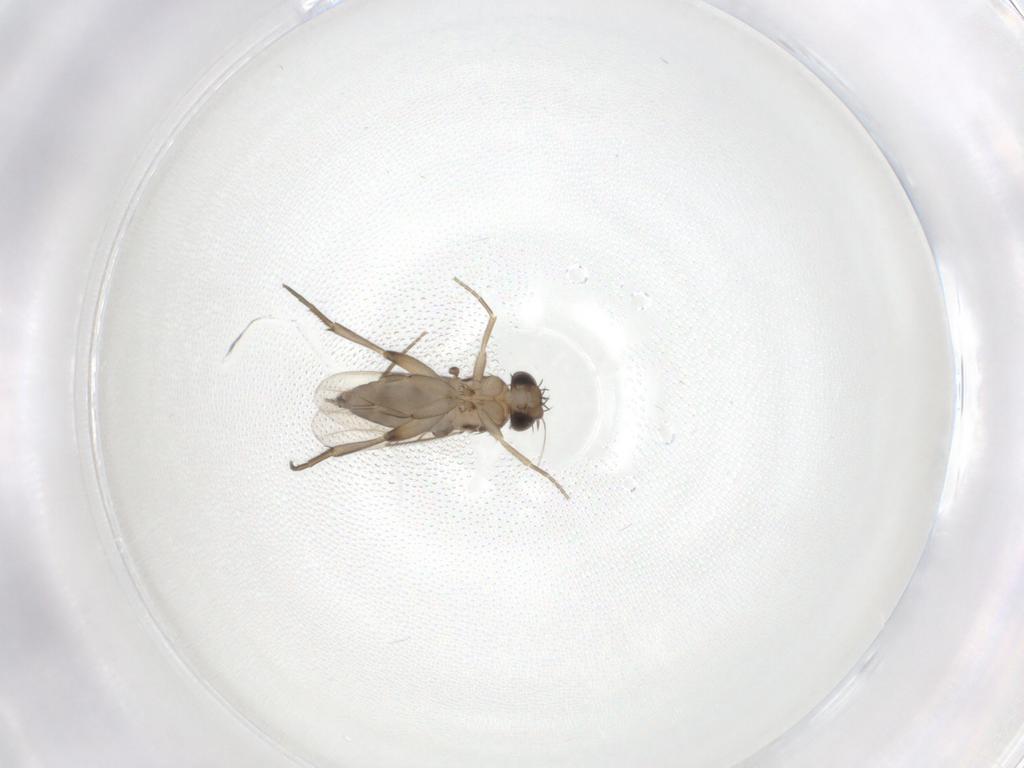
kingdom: Animalia
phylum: Arthropoda
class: Insecta
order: Diptera
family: Phoridae
